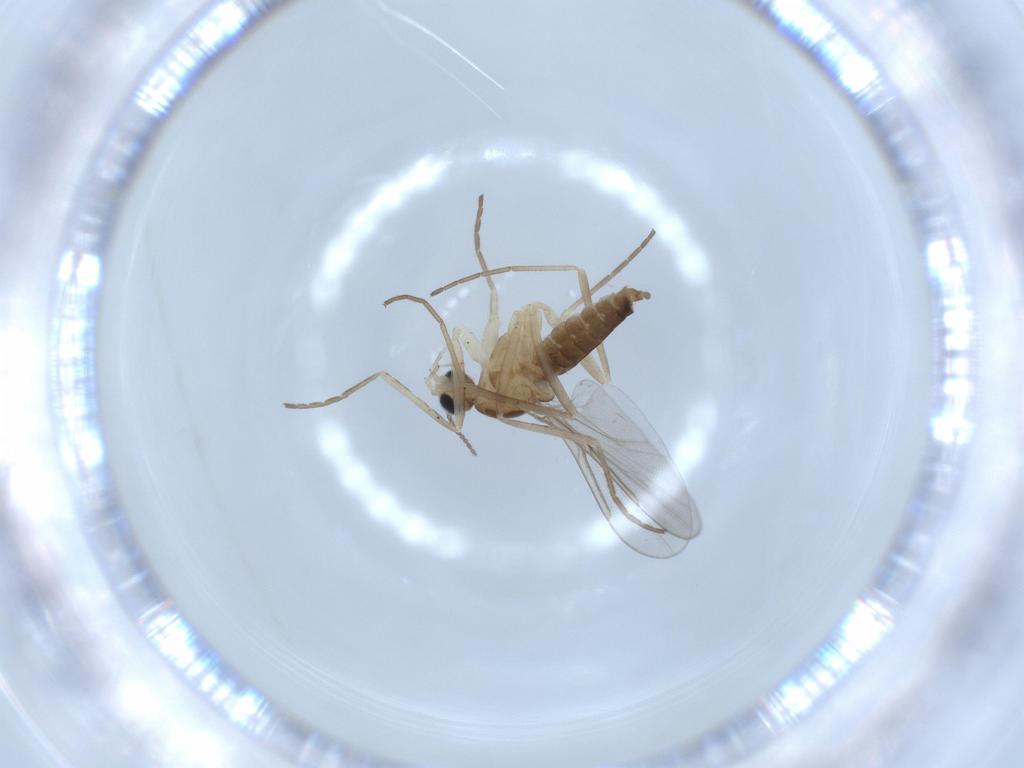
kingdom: Animalia
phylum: Arthropoda
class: Insecta
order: Diptera
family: Cecidomyiidae
